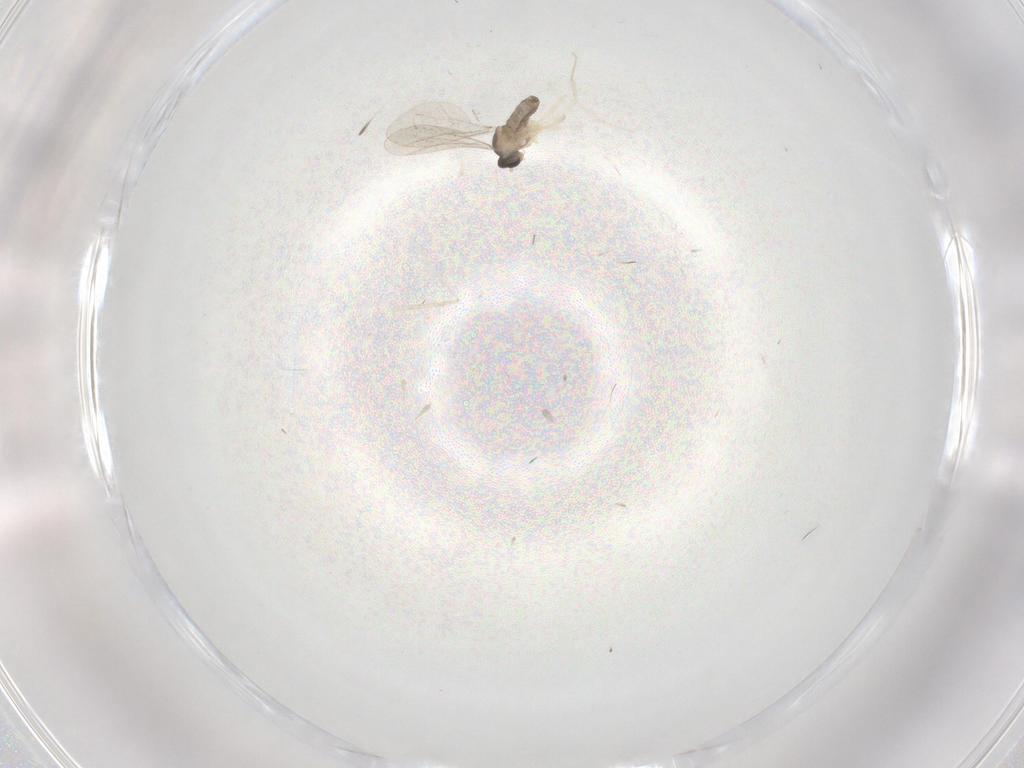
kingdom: Animalia
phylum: Arthropoda
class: Insecta
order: Diptera
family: Cecidomyiidae
